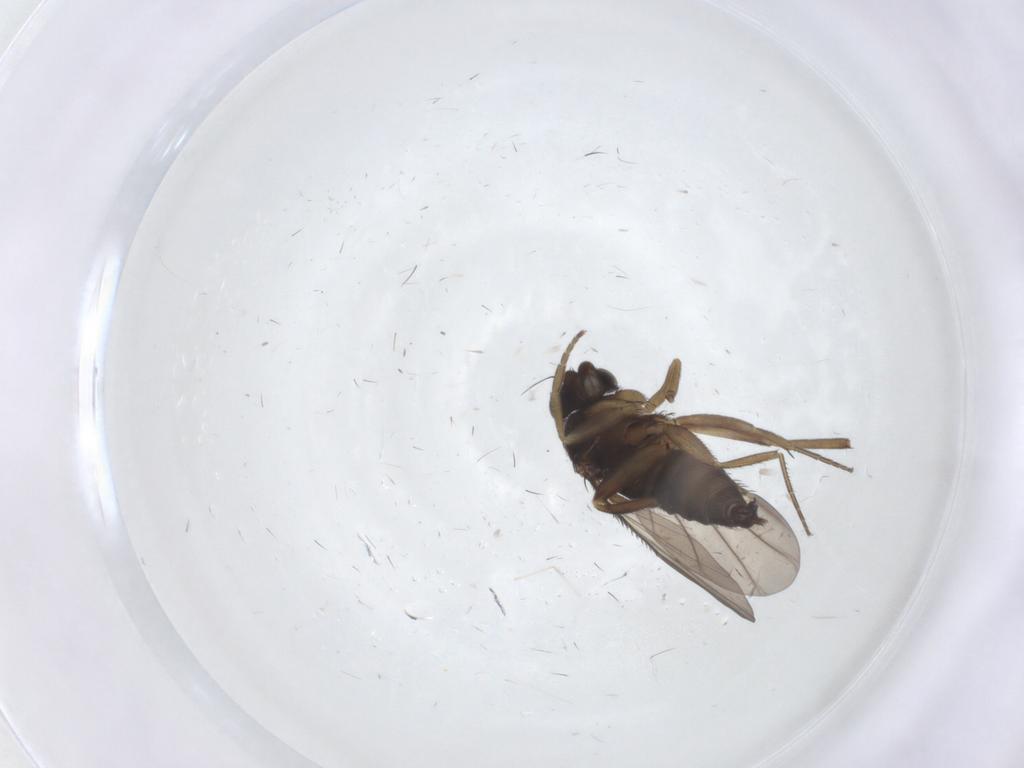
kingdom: Animalia
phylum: Arthropoda
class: Insecta
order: Diptera
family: Phoridae
